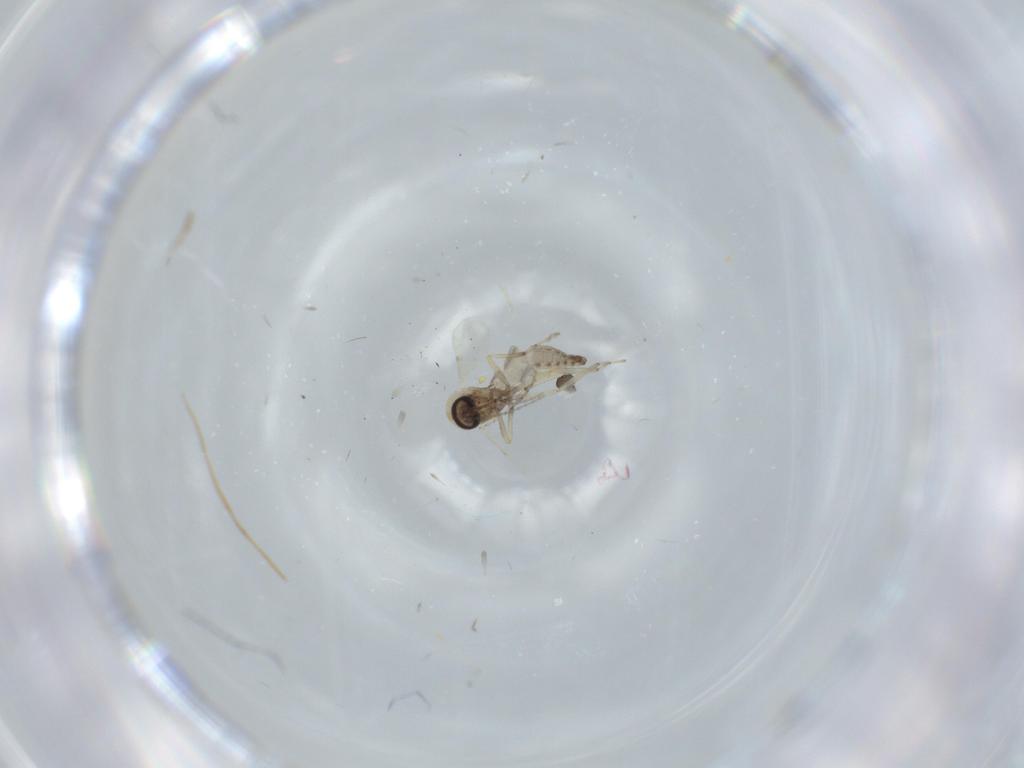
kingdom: Animalia
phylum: Arthropoda
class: Insecta
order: Diptera
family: Ceratopogonidae
